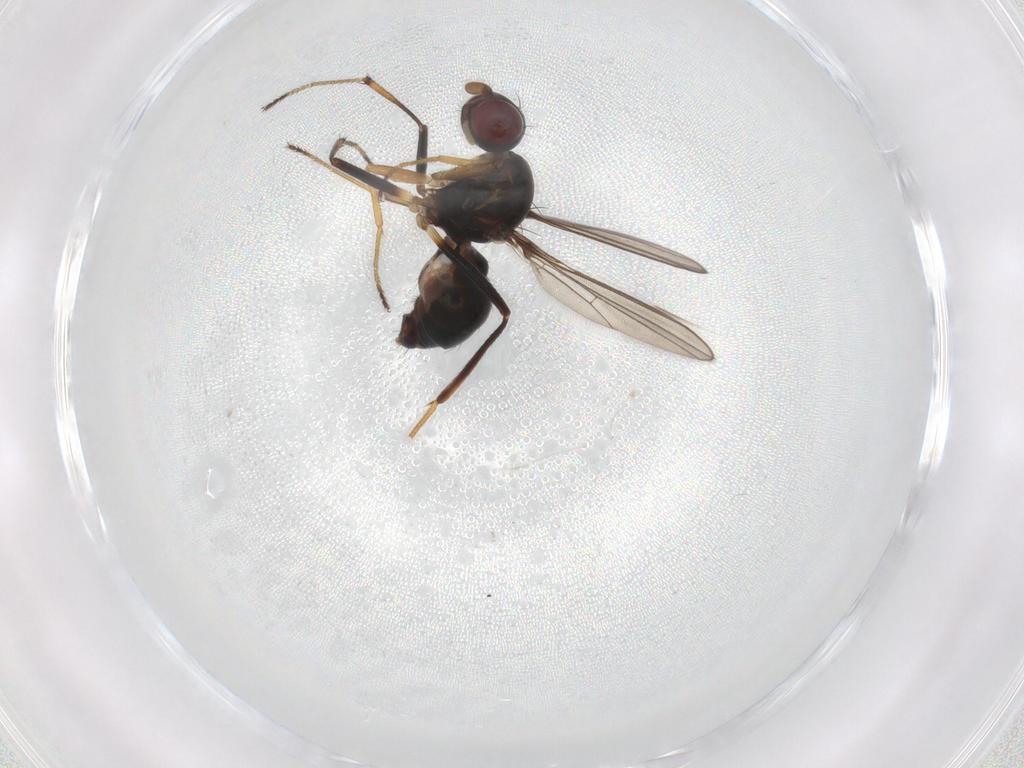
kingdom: Animalia
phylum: Arthropoda
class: Insecta
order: Diptera
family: Sepsidae
